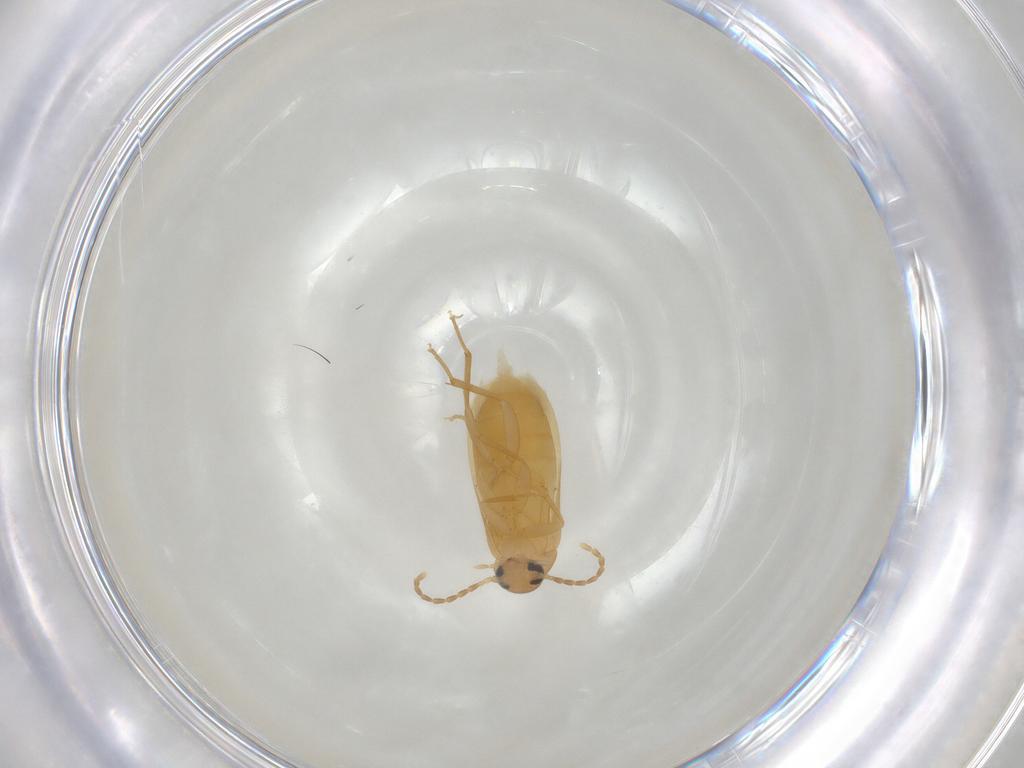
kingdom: Animalia
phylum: Arthropoda
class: Insecta
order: Coleoptera
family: Scraptiidae
